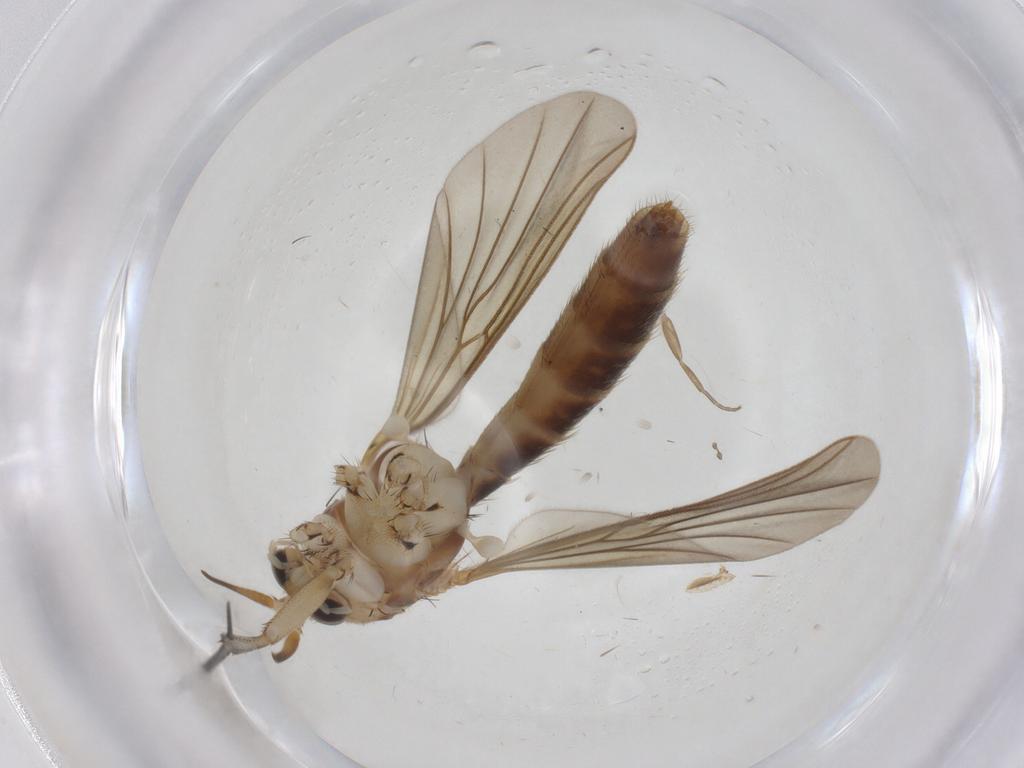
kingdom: Animalia
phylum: Arthropoda
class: Insecta
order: Diptera
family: Mycetophilidae
